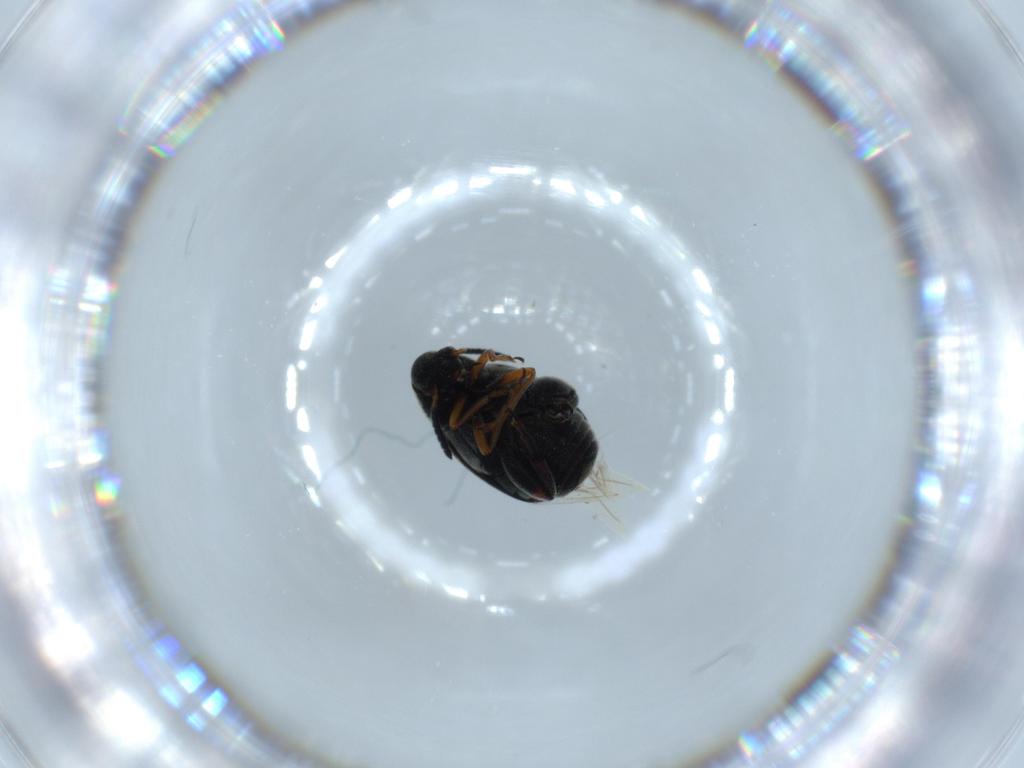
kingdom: Animalia
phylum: Arthropoda
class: Insecta
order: Coleoptera
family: Chrysomelidae
